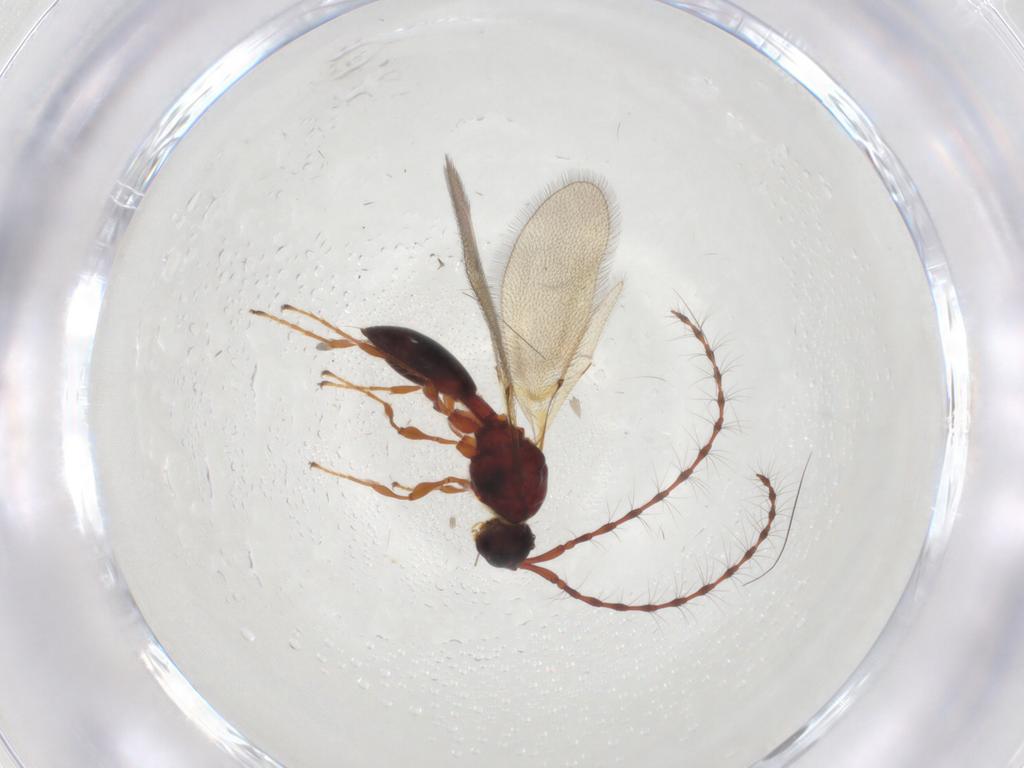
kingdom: Animalia
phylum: Arthropoda
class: Insecta
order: Hymenoptera
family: Diapriidae
